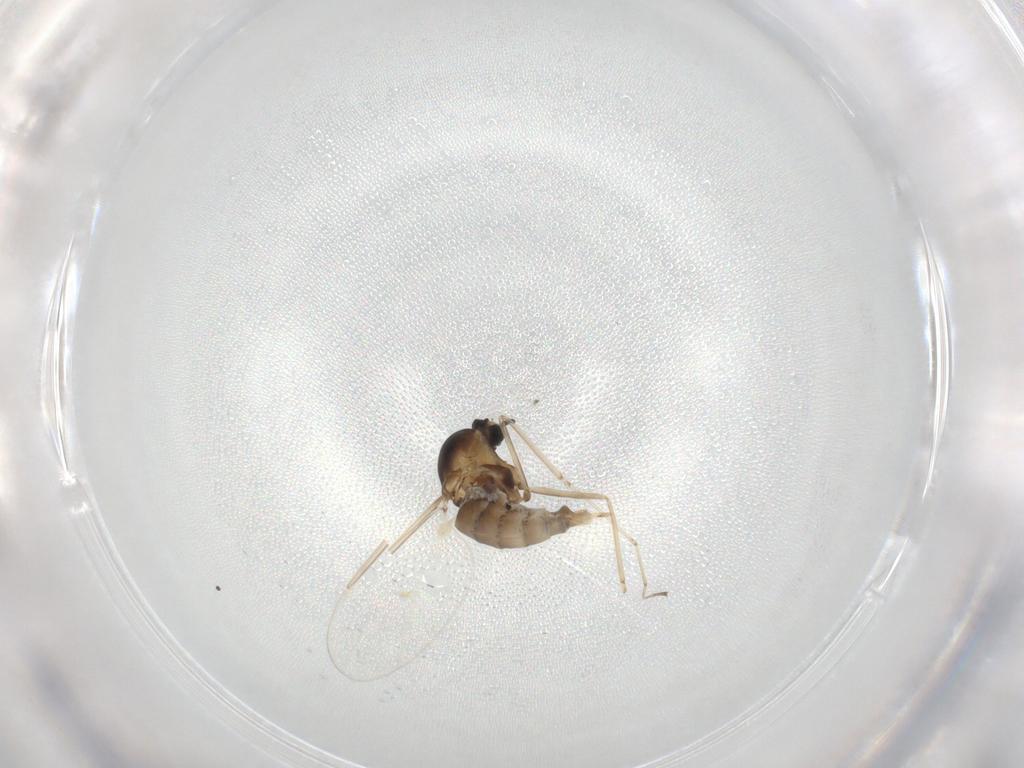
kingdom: Animalia
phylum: Arthropoda
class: Insecta
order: Diptera
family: Cecidomyiidae
